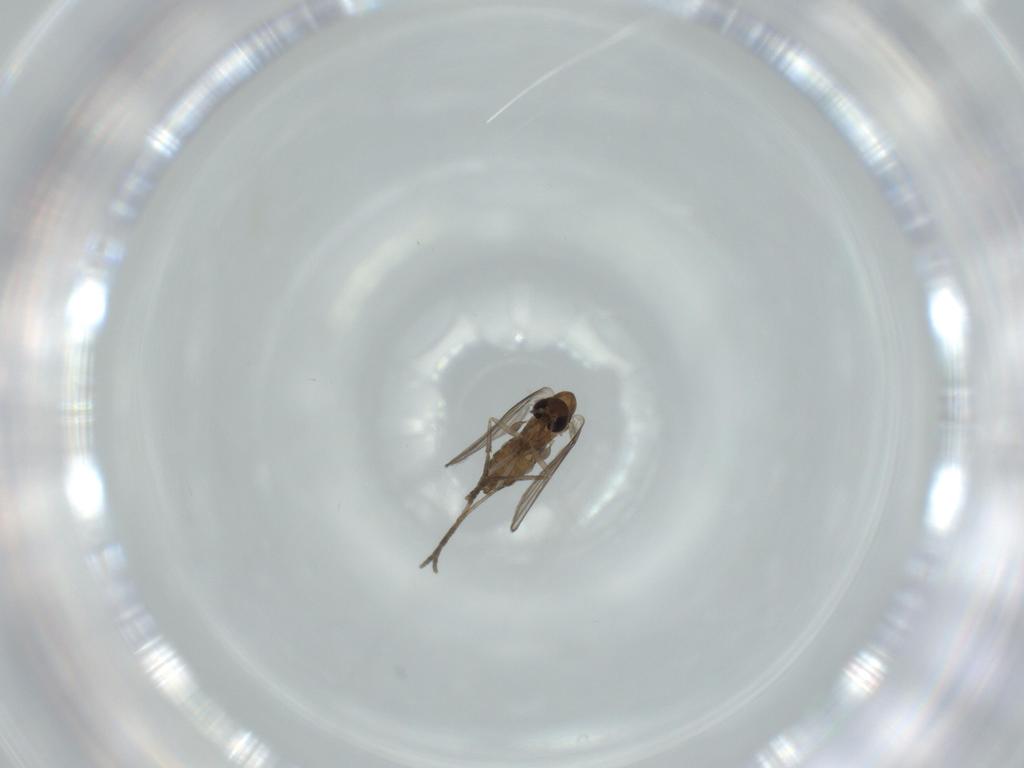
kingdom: Animalia
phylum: Arthropoda
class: Insecta
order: Diptera
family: Psychodidae
